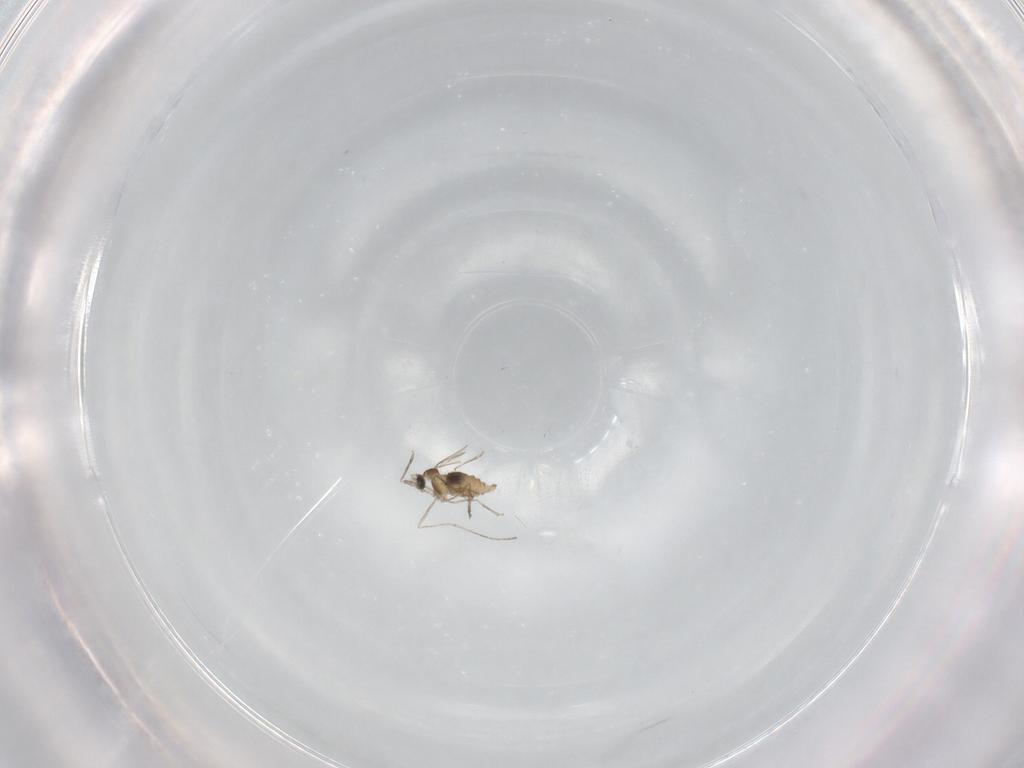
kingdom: Animalia
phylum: Arthropoda
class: Insecta
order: Diptera
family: Cecidomyiidae
